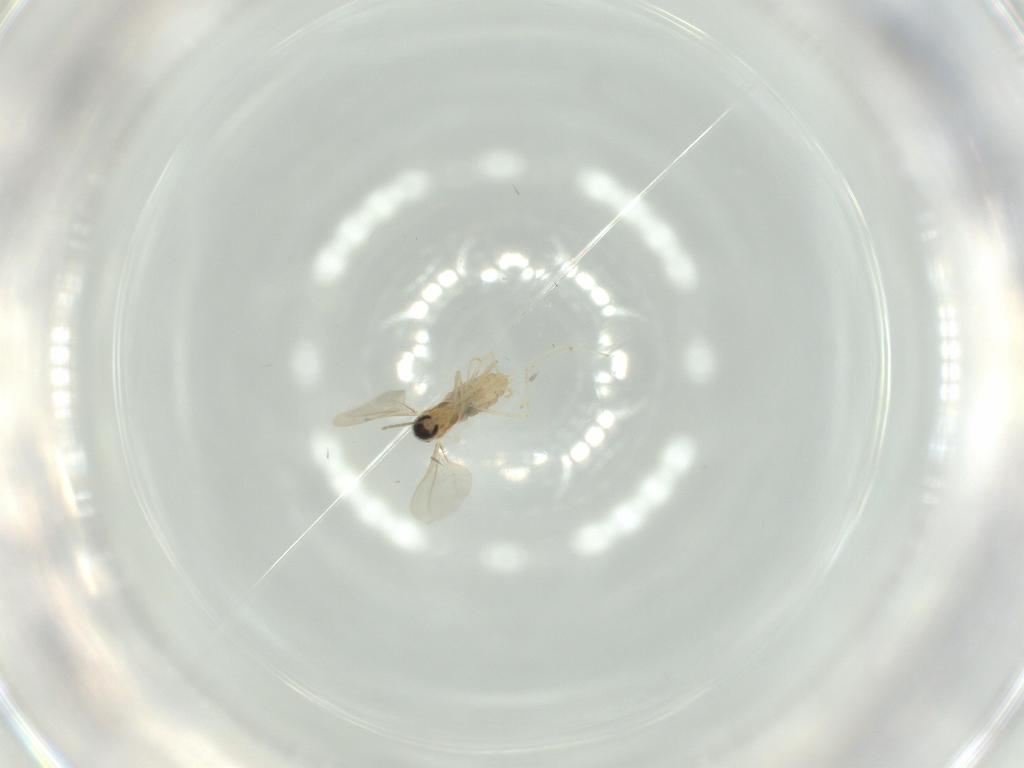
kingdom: Animalia
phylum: Arthropoda
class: Insecta
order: Diptera
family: Cecidomyiidae
